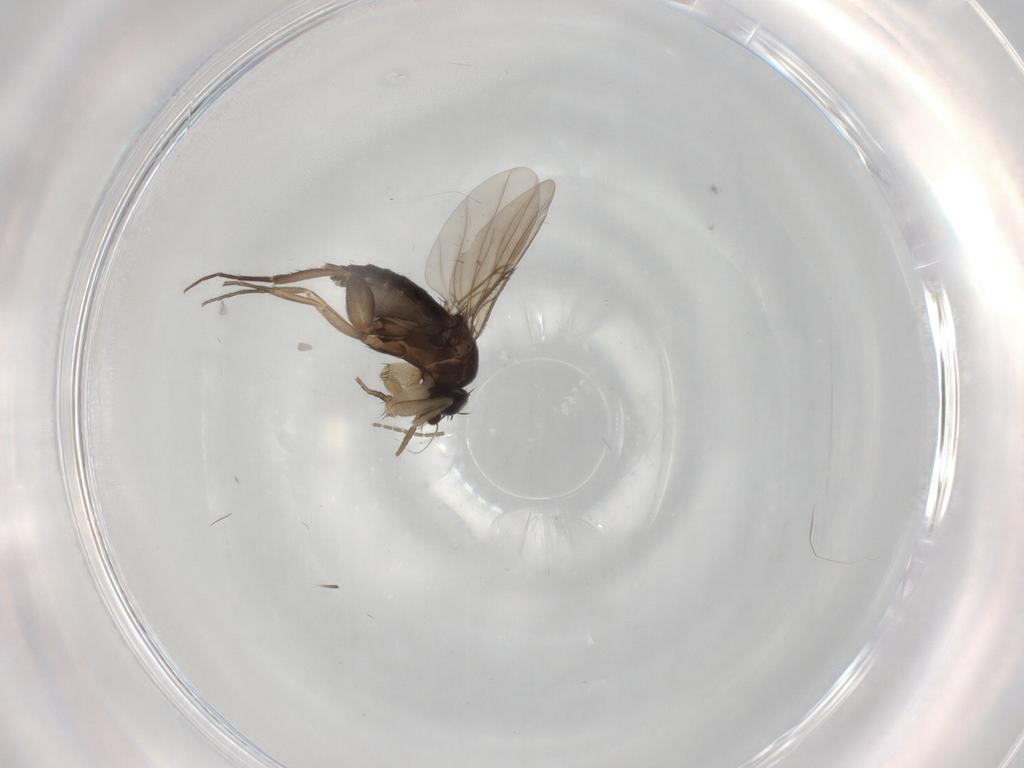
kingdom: Animalia
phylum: Arthropoda
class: Insecta
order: Diptera
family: Phoridae
